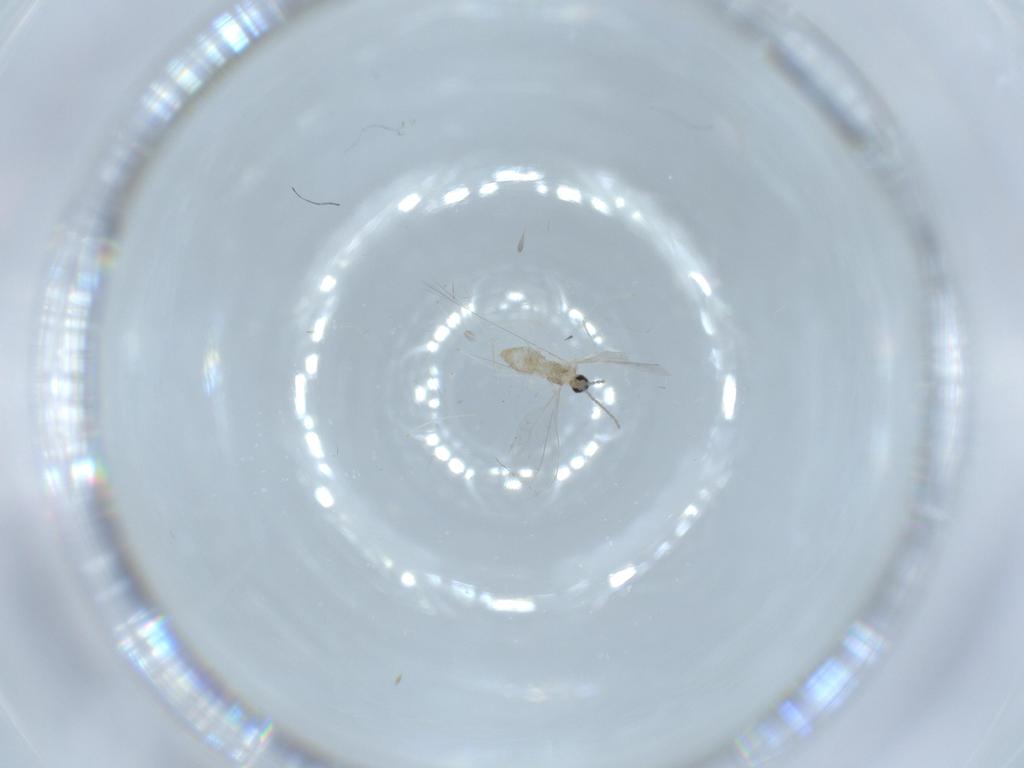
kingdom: Animalia
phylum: Arthropoda
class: Insecta
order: Diptera
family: Cecidomyiidae
